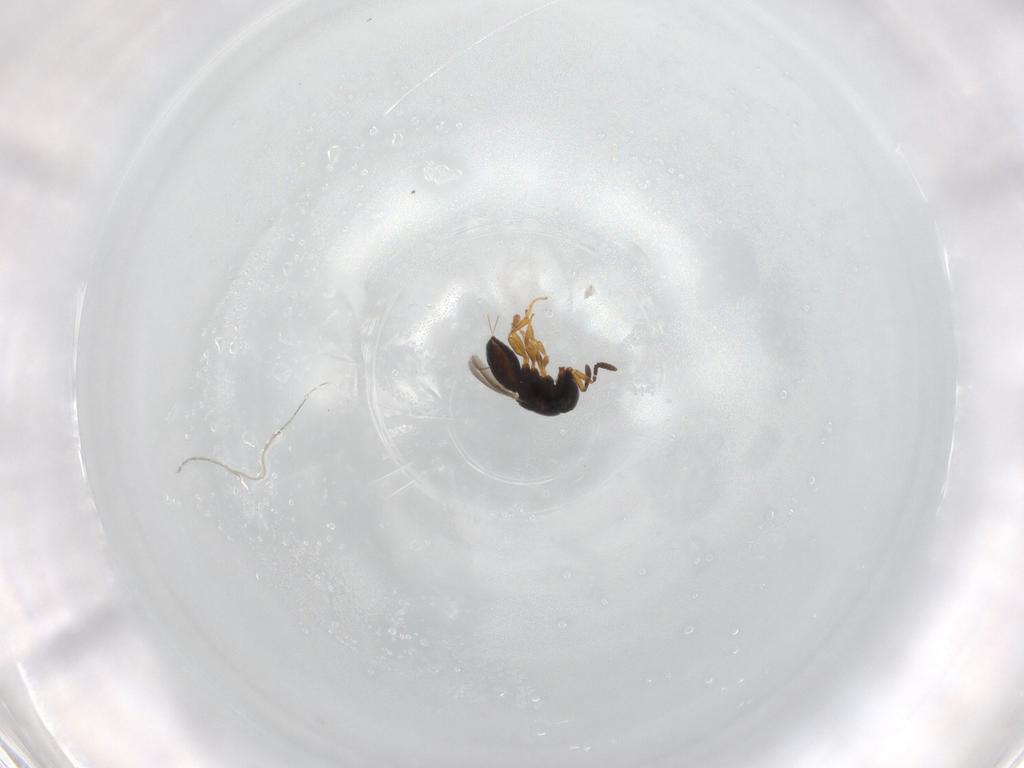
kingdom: Animalia
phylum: Arthropoda
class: Insecta
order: Hymenoptera
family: Scelionidae
